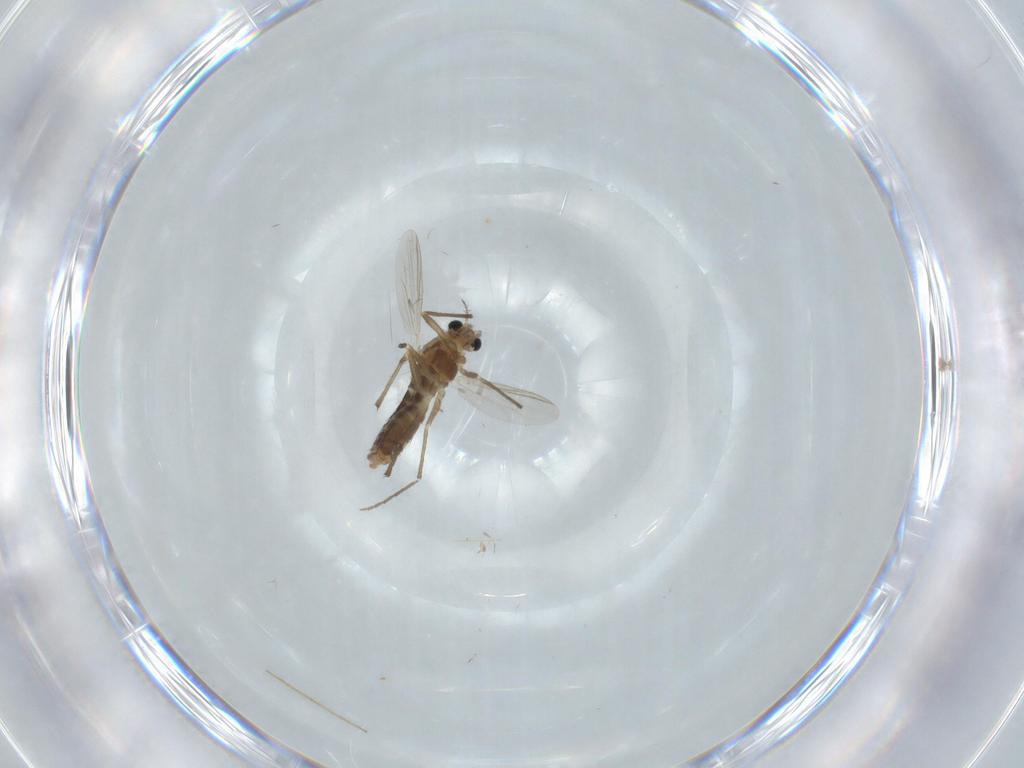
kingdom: Animalia
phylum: Arthropoda
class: Insecta
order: Diptera
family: Chironomidae
